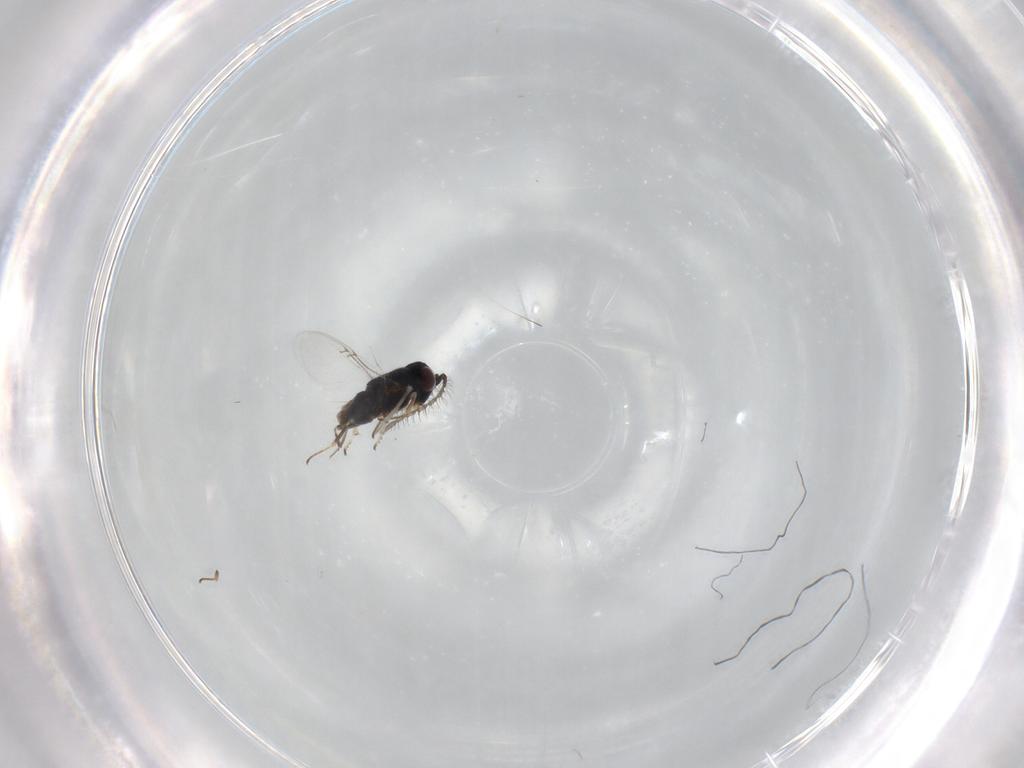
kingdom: Animalia
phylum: Arthropoda
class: Insecta
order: Hymenoptera
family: Encyrtidae
